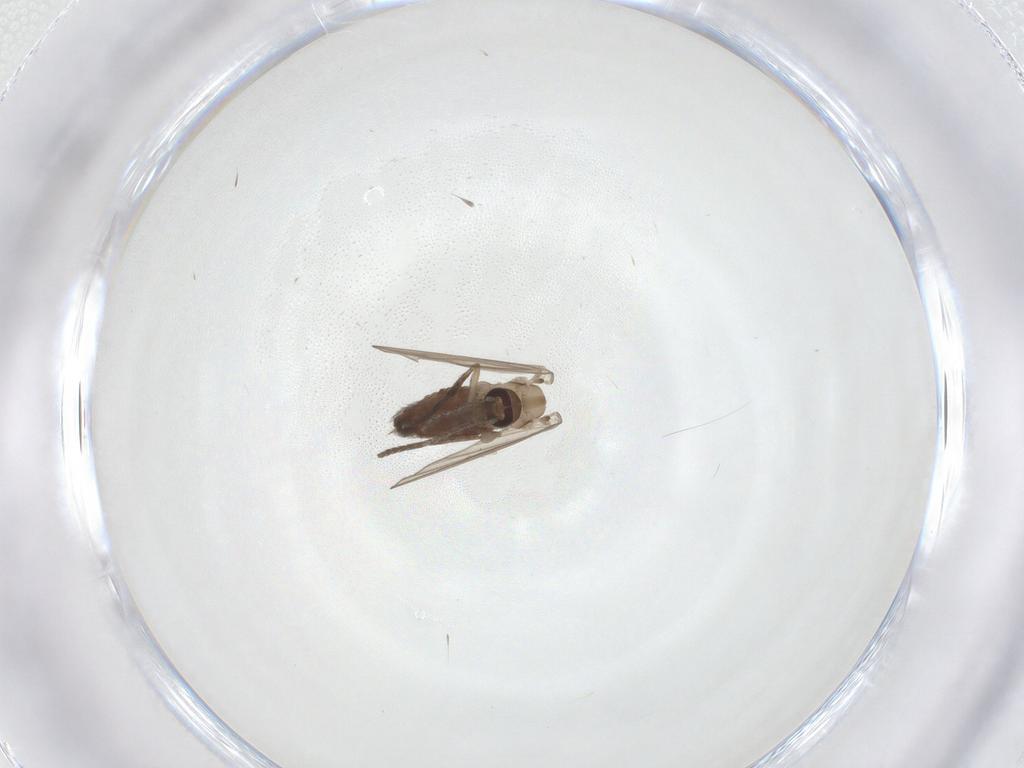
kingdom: Animalia
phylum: Arthropoda
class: Insecta
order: Diptera
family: Psychodidae
